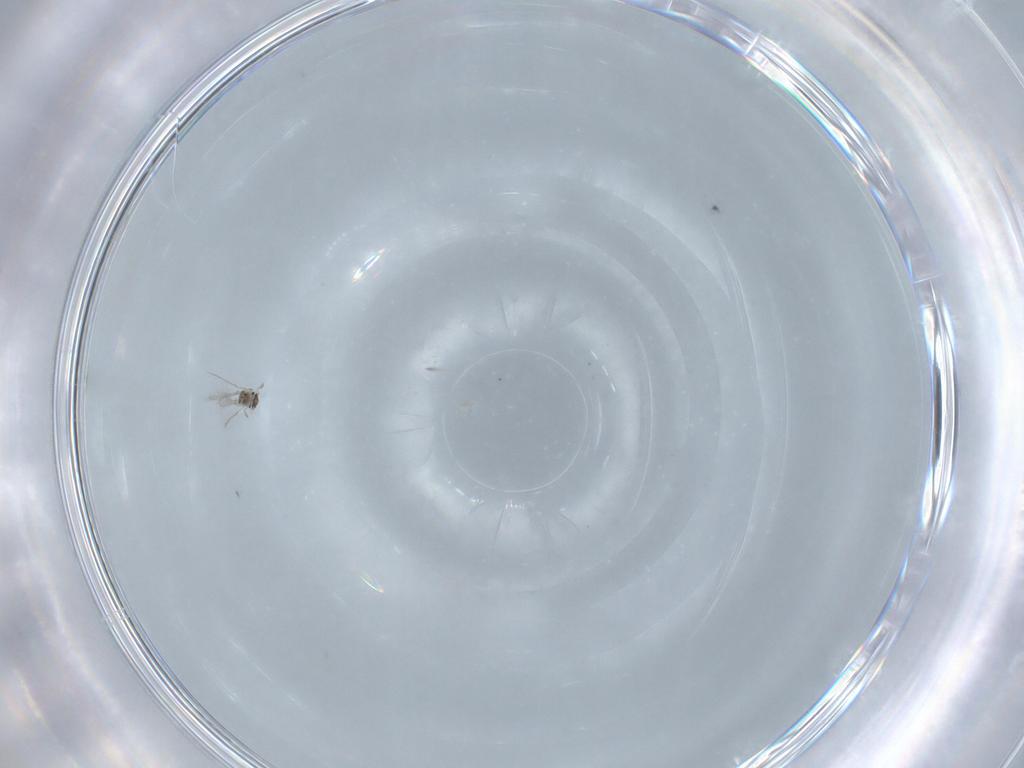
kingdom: Animalia
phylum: Arthropoda
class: Insecta
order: Hymenoptera
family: Mymaridae
